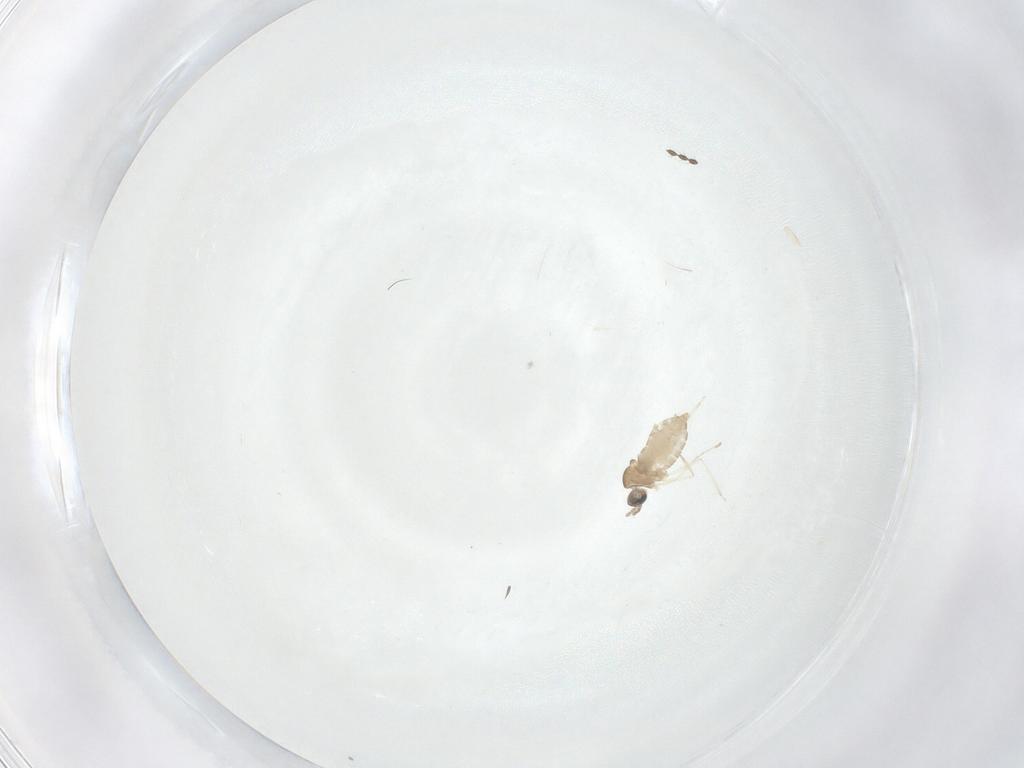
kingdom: Animalia
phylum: Arthropoda
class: Insecta
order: Diptera
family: Cecidomyiidae
